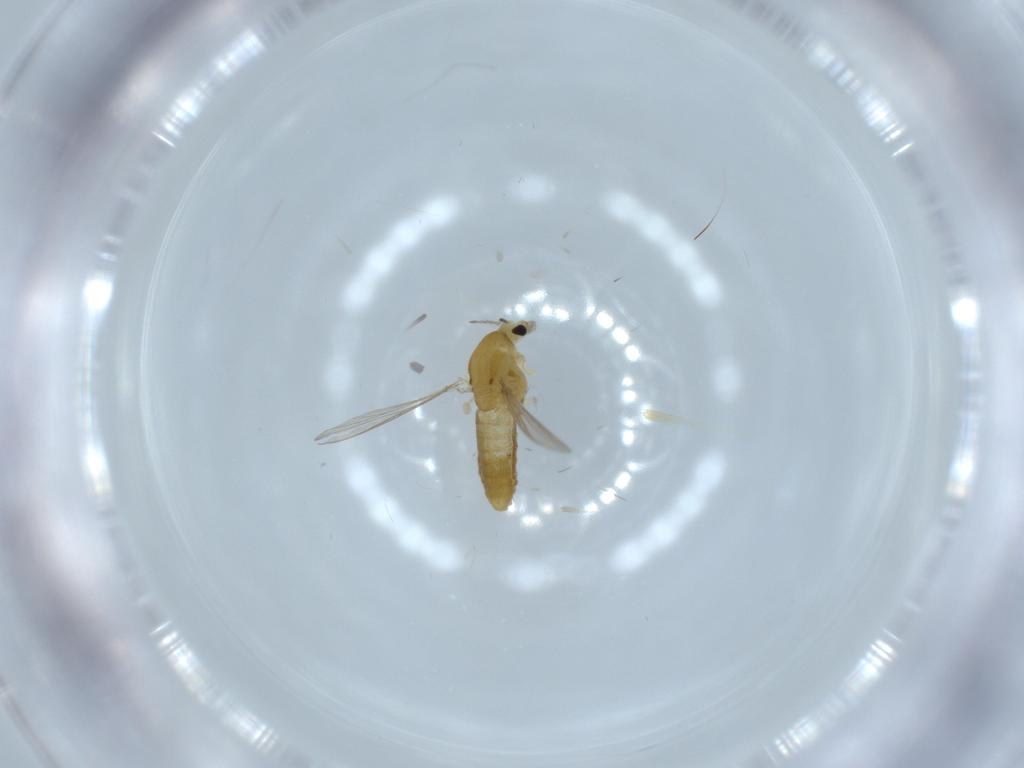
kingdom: Animalia
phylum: Arthropoda
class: Insecta
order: Diptera
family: Chironomidae
